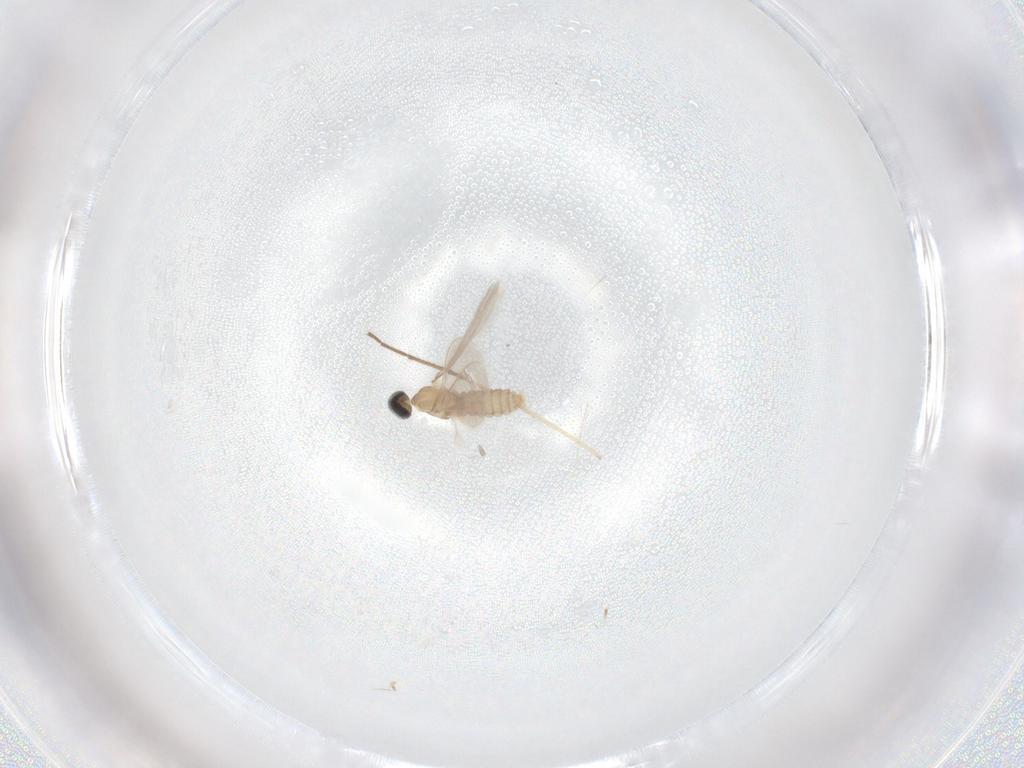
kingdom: Animalia
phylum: Arthropoda
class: Insecta
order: Diptera
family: Chironomidae
